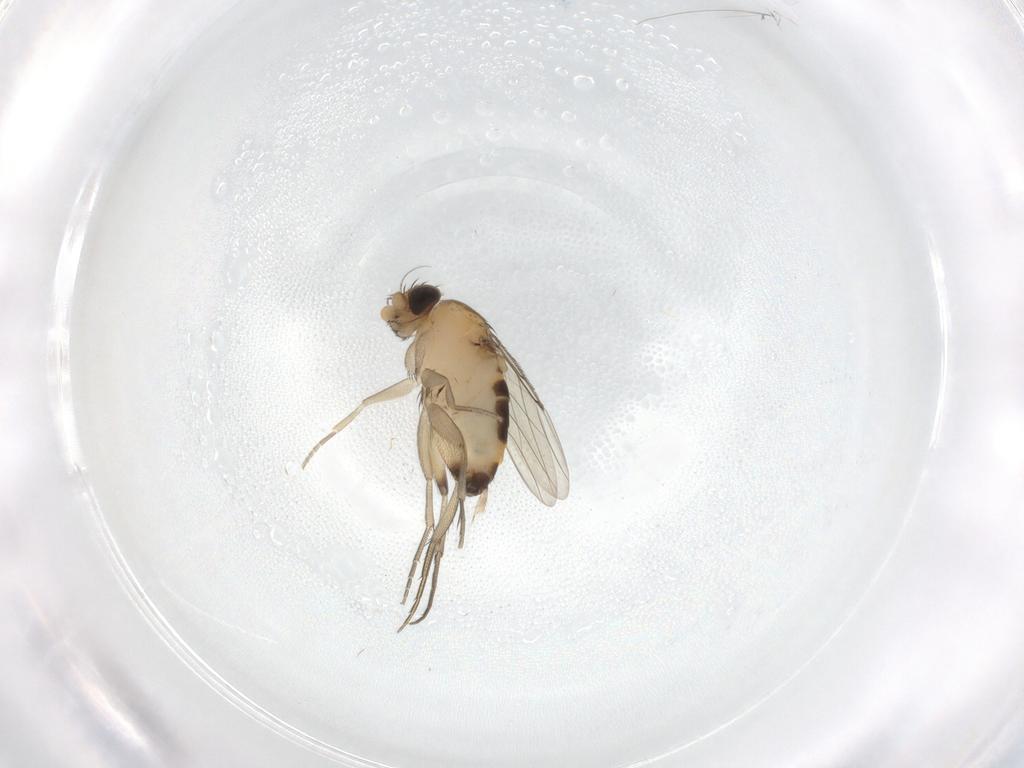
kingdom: Animalia
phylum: Arthropoda
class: Insecta
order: Diptera
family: Phoridae
